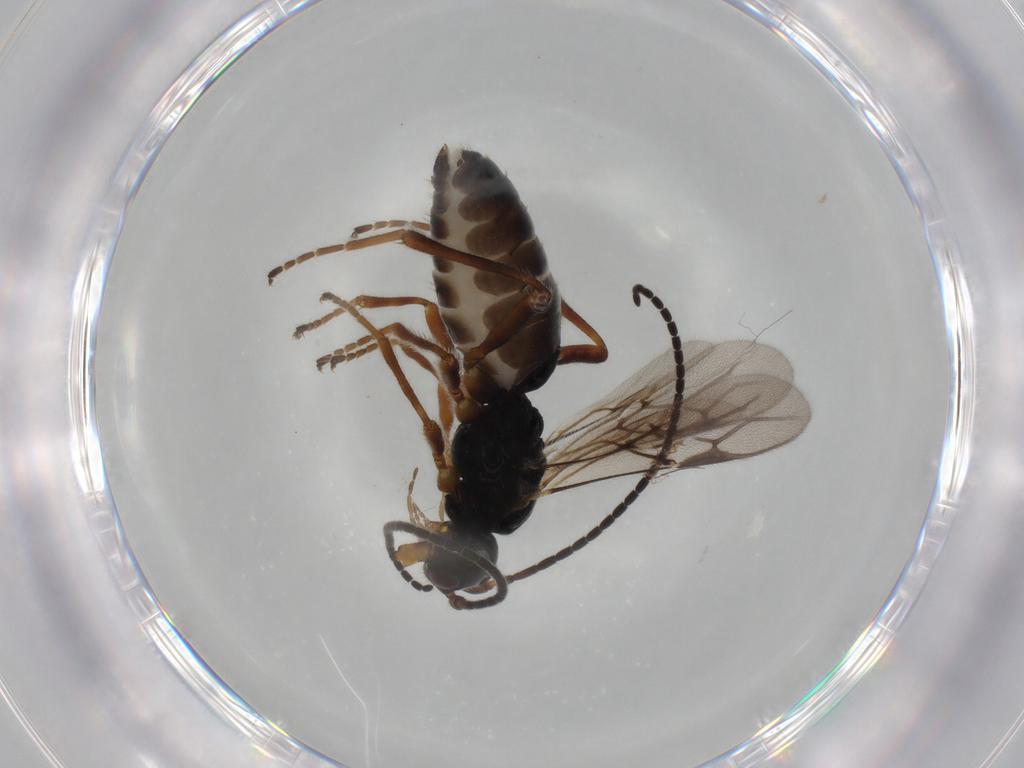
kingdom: Animalia
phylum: Arthropoda
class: Insecta
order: Hymenoptera
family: Braconidae
